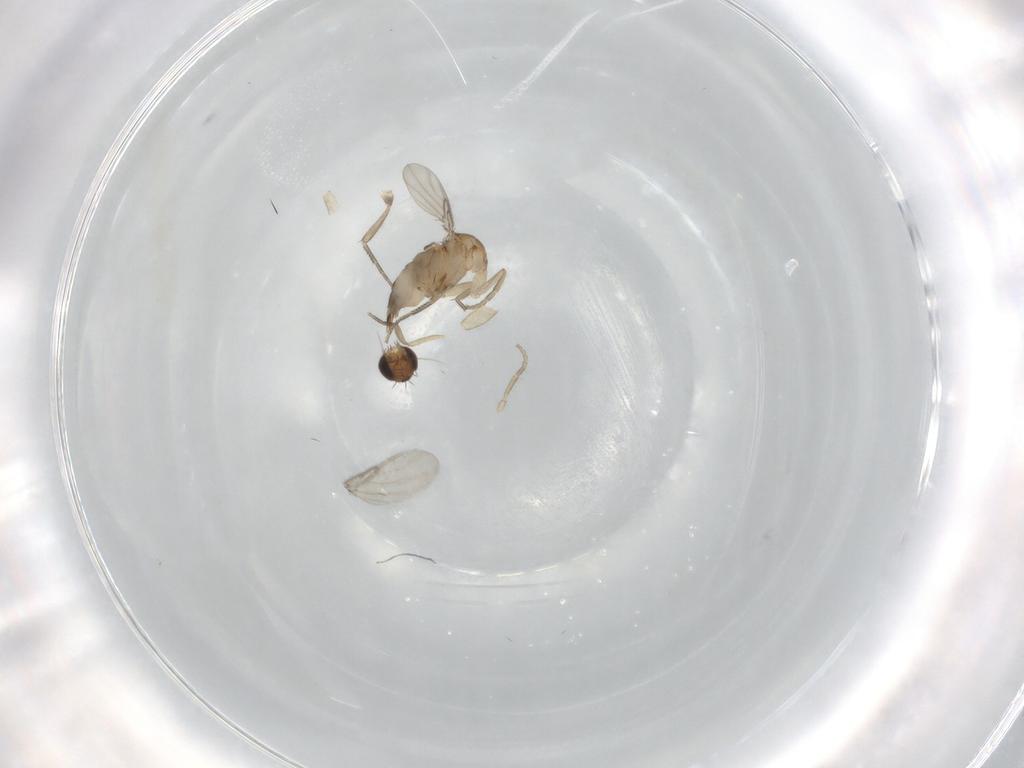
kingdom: Animalia
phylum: Arthropoda
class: Insecta
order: Diptera
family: Phoridae
